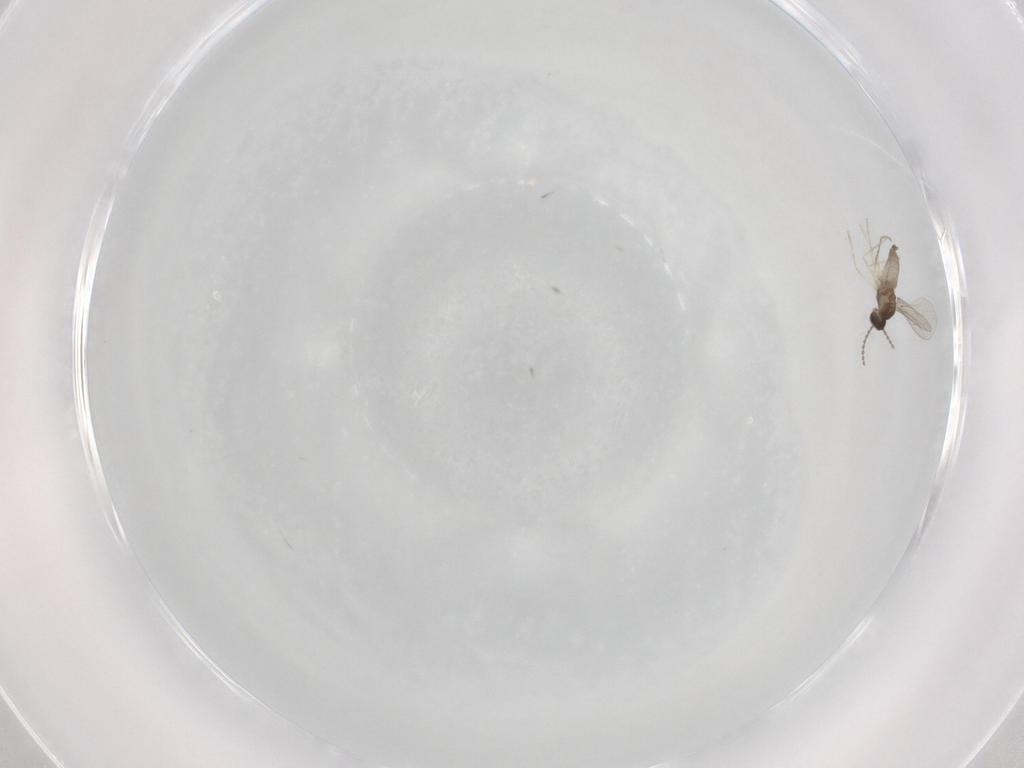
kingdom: Animalia
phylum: Arthropoda
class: Insecta
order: Diptera
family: Cecidomyiidae
